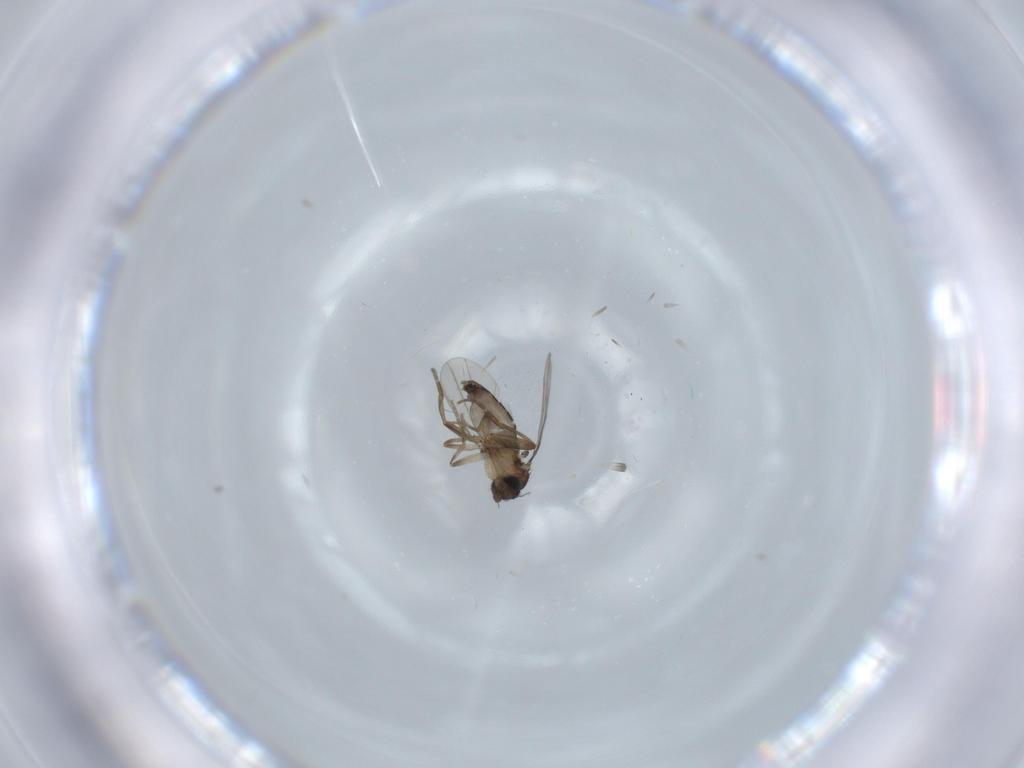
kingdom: Animalia
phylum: Arthropoda
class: Insecta
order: Diptera
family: Phoridae
